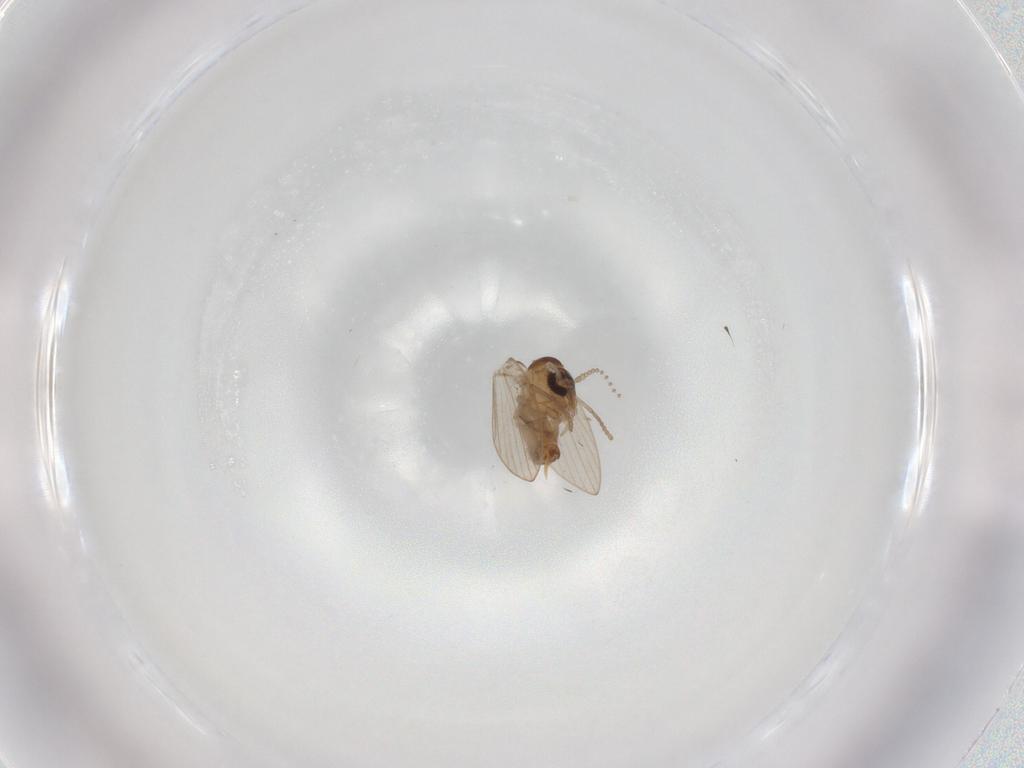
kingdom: Animalia
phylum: Arthropoda
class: Insecta
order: Diptera
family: Psychodidae
